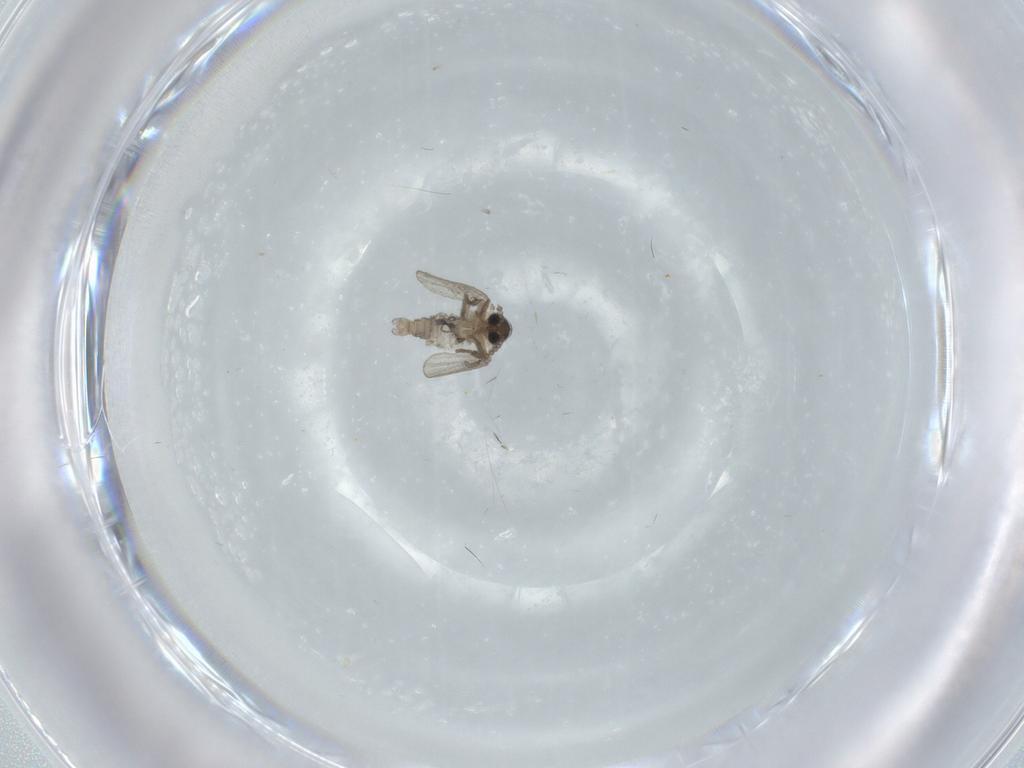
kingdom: Animalia
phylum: Arthropoda
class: Insecta
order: Diptera
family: Psychodidae
